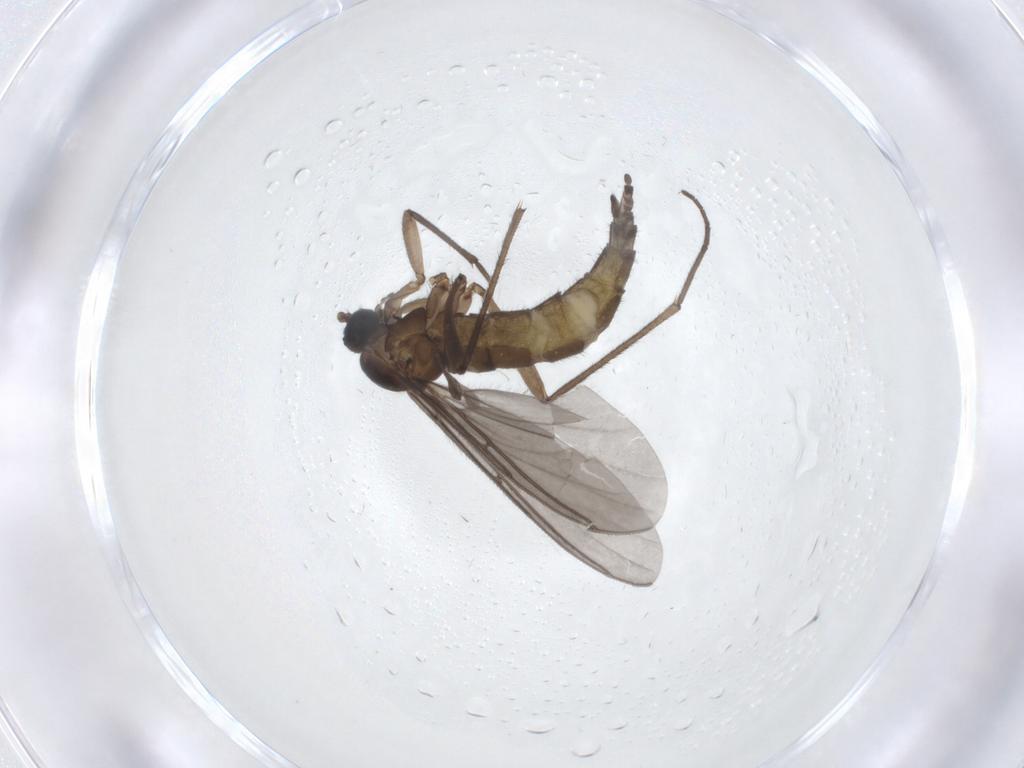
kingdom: Animalia
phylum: Arthropoda
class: Insecta
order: Diptera
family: Sciaridae
